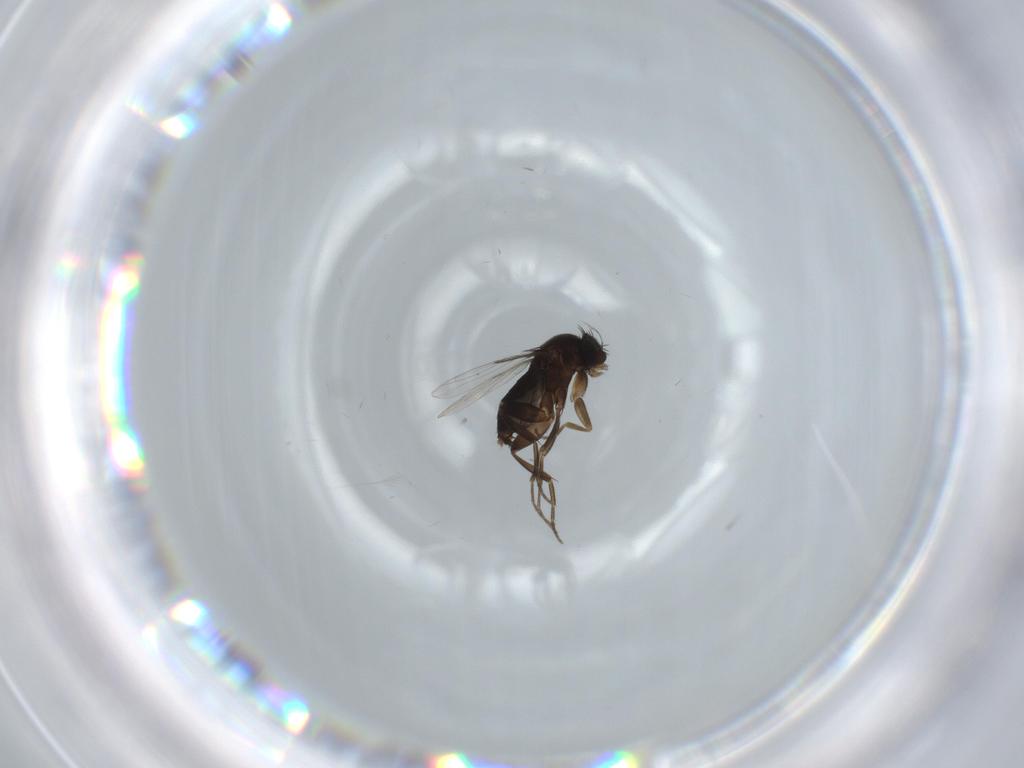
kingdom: Animalia
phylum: Arthropoda
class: Insecta
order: Diptera
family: Phoridae
